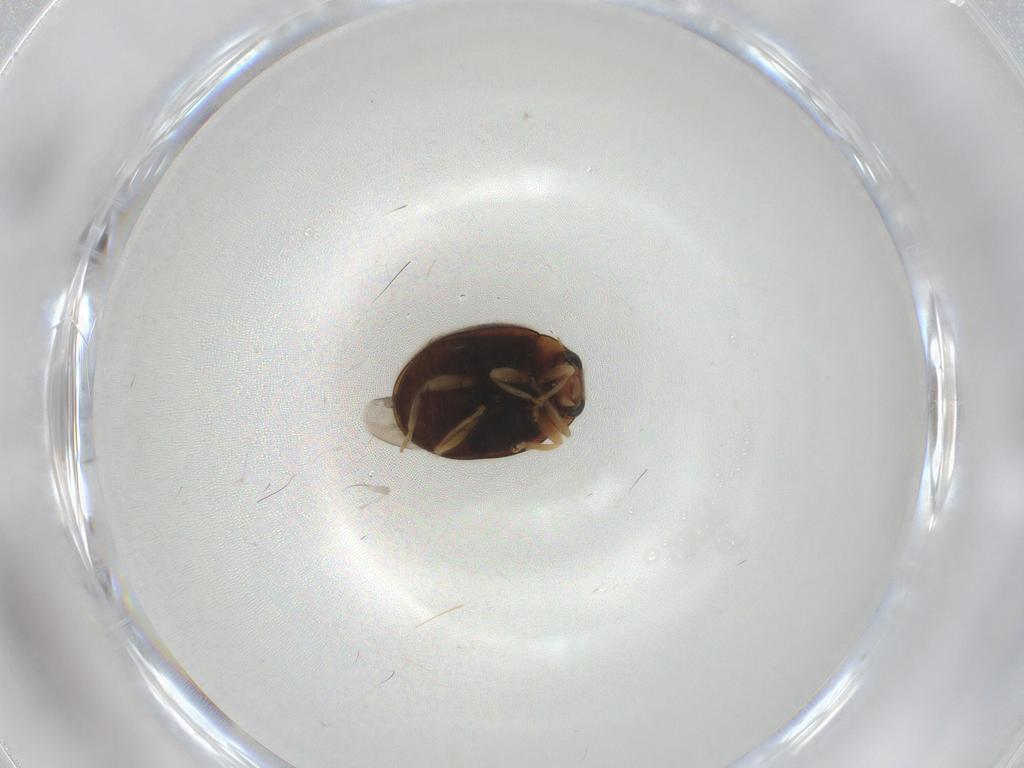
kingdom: Animalia
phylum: Arthropoda
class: Insecta
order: Coleoptera
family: Coccinellidae
